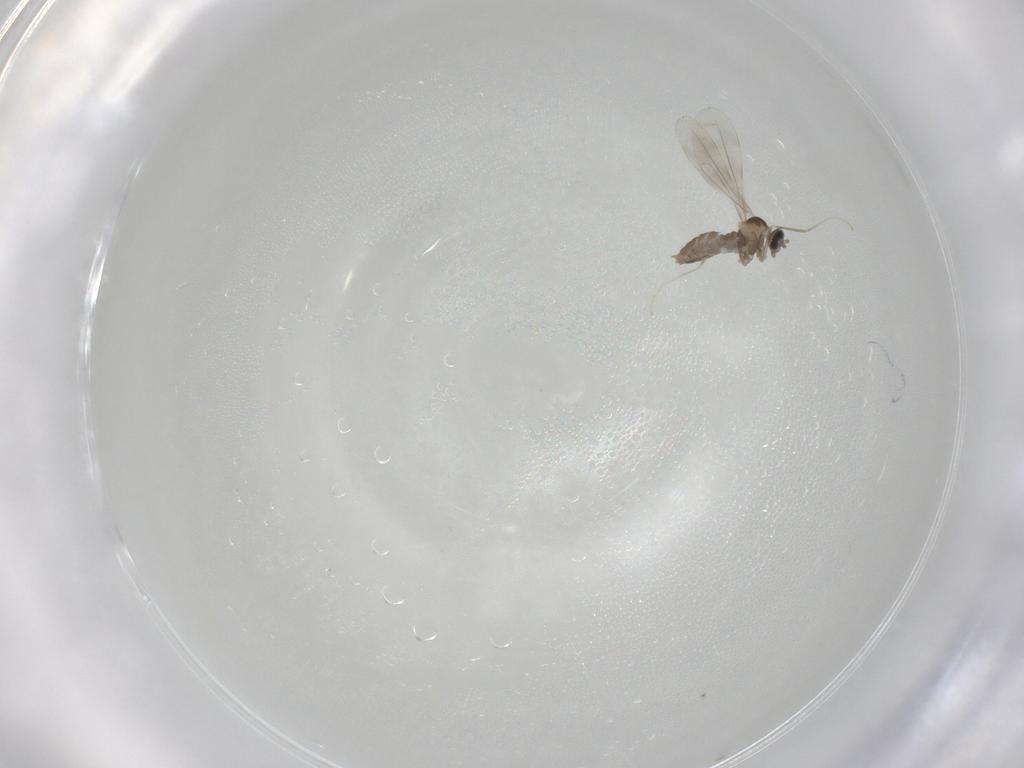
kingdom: Animalia
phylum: Arthropoda
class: Insecta
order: Diptera
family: Cecidomyiidae
